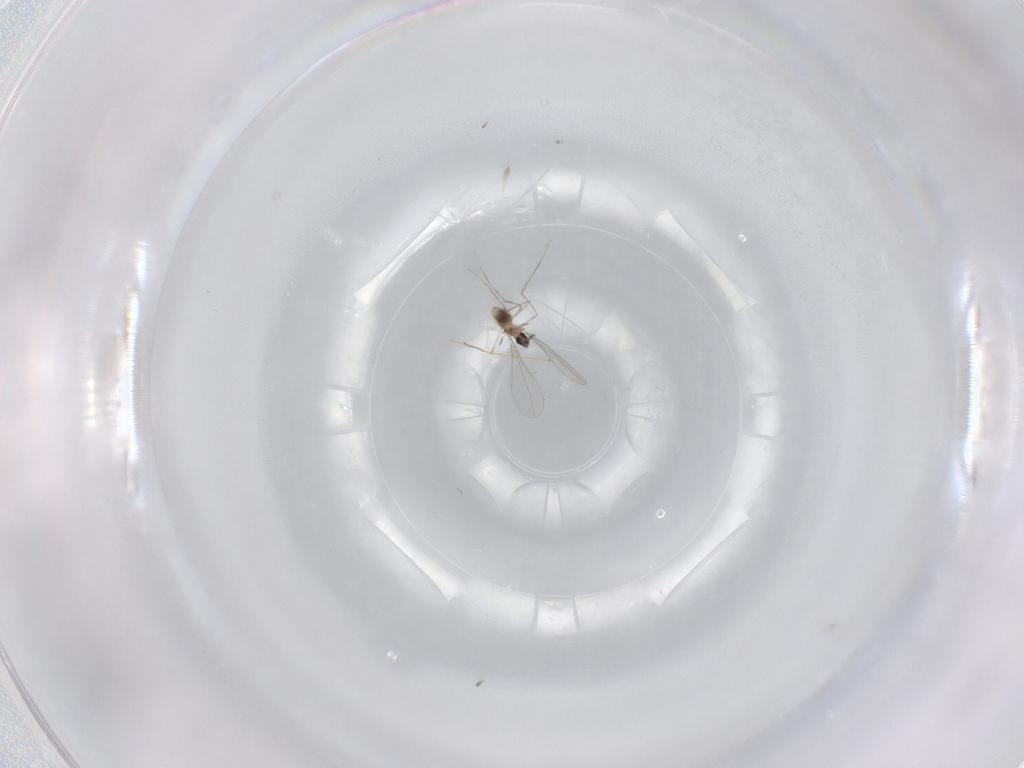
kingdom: Animalia
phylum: Arthropoda
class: Insecta
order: Diptera
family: Cecidomyiidae
